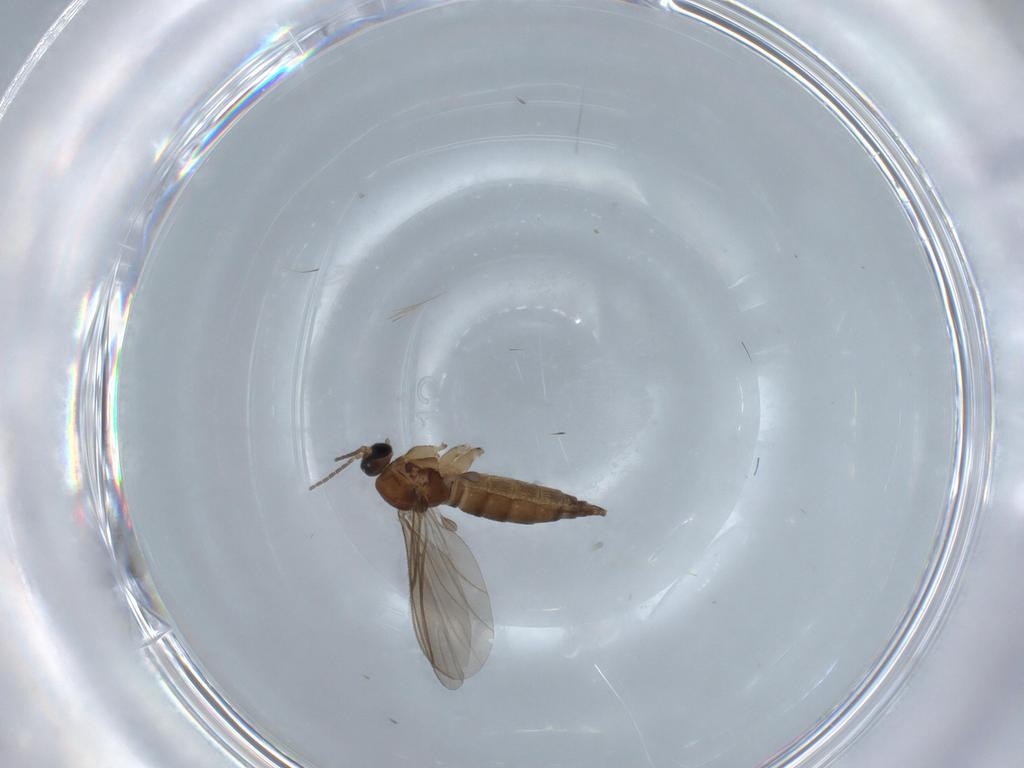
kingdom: Animalia
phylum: Arthropoda
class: Insecta
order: Diptera
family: Sciaridae
